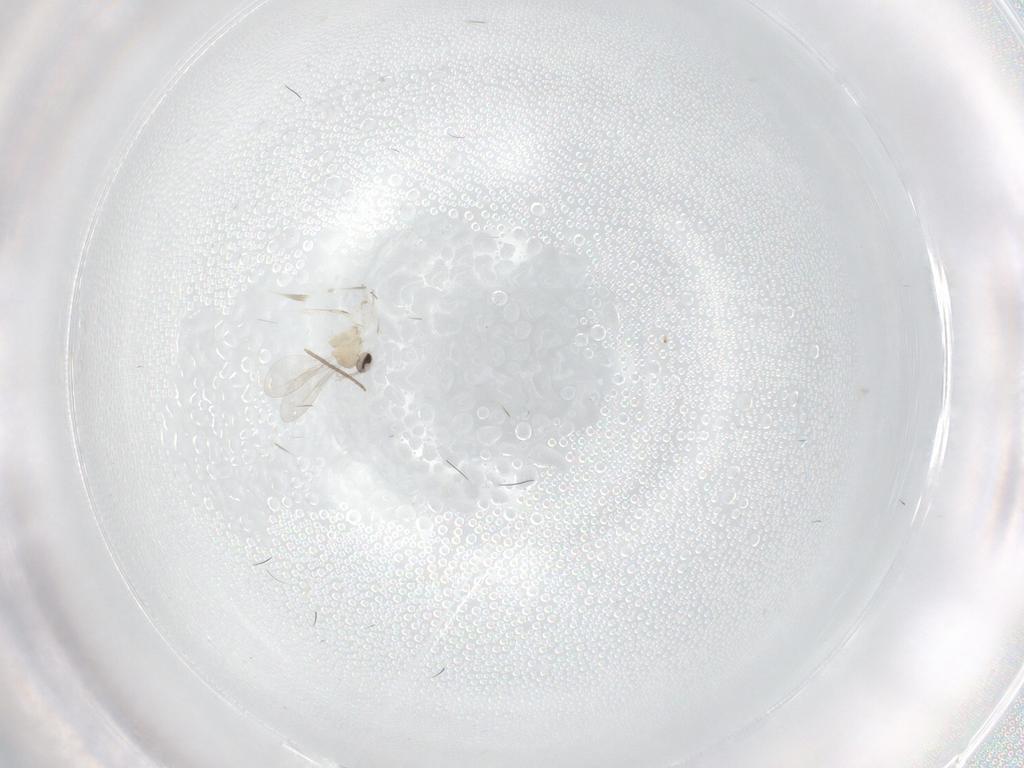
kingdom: Animalia
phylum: Arthropoda
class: Insecta
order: Diptera
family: Cecidomyiidae
